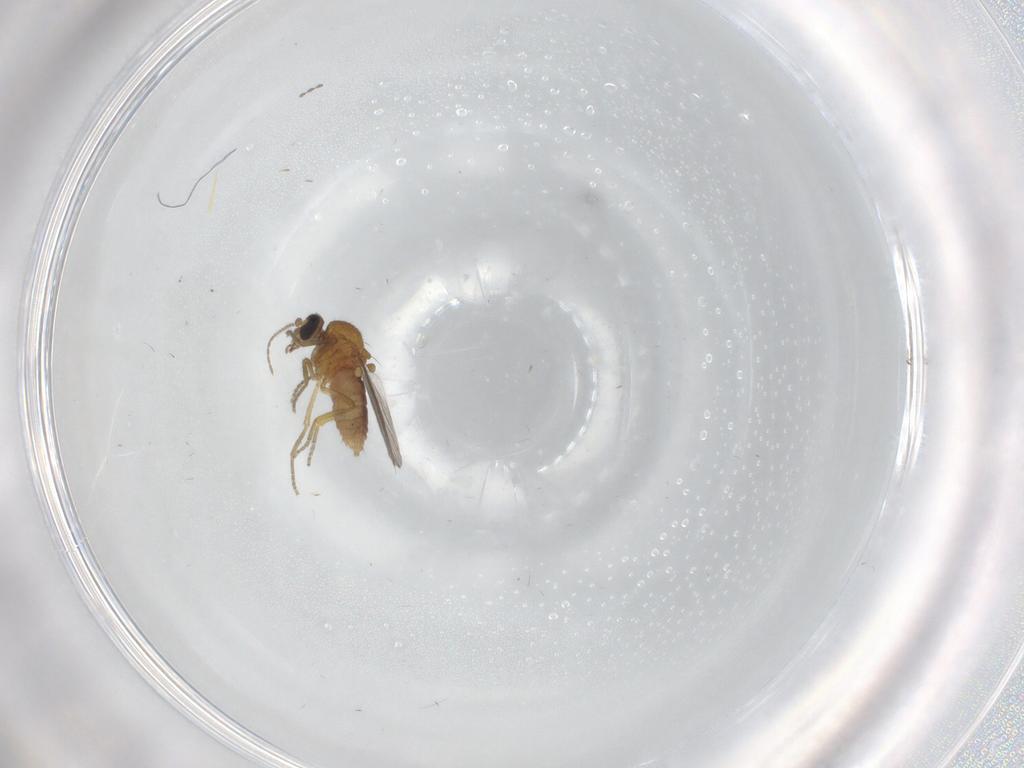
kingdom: Animalia
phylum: Arthropoda
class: Insecta
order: Diptera
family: Ceratopogonidae
